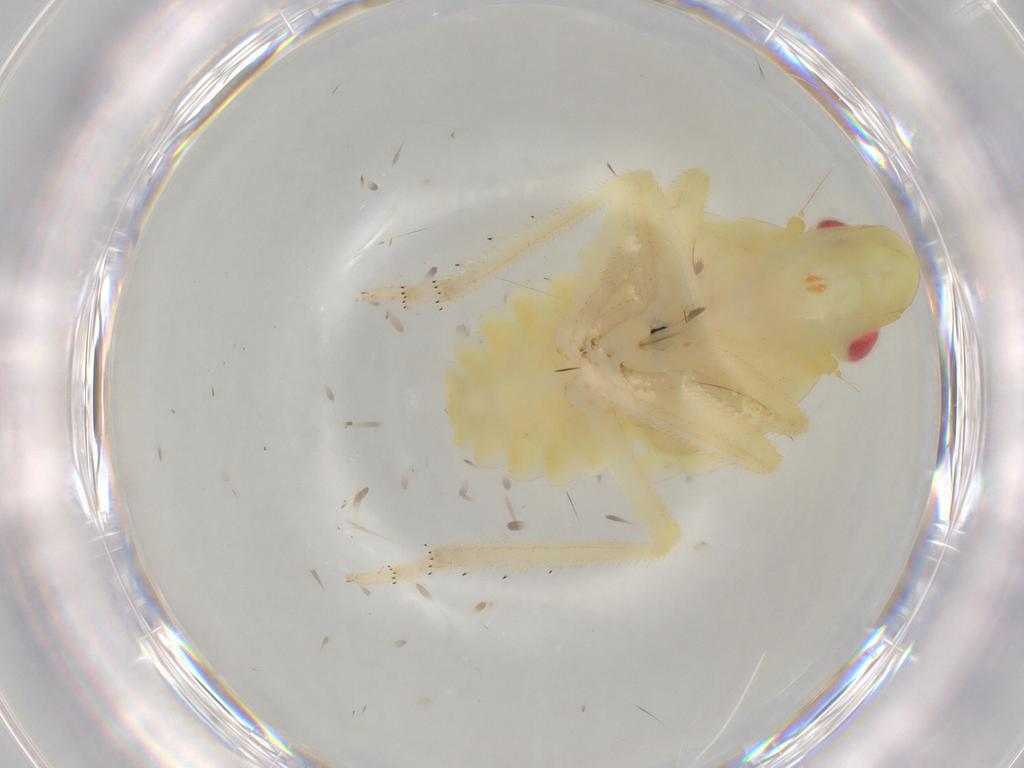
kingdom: Animalia
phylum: Arthropoda
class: Insecta
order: Hemiptera
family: Tropiduchidae
